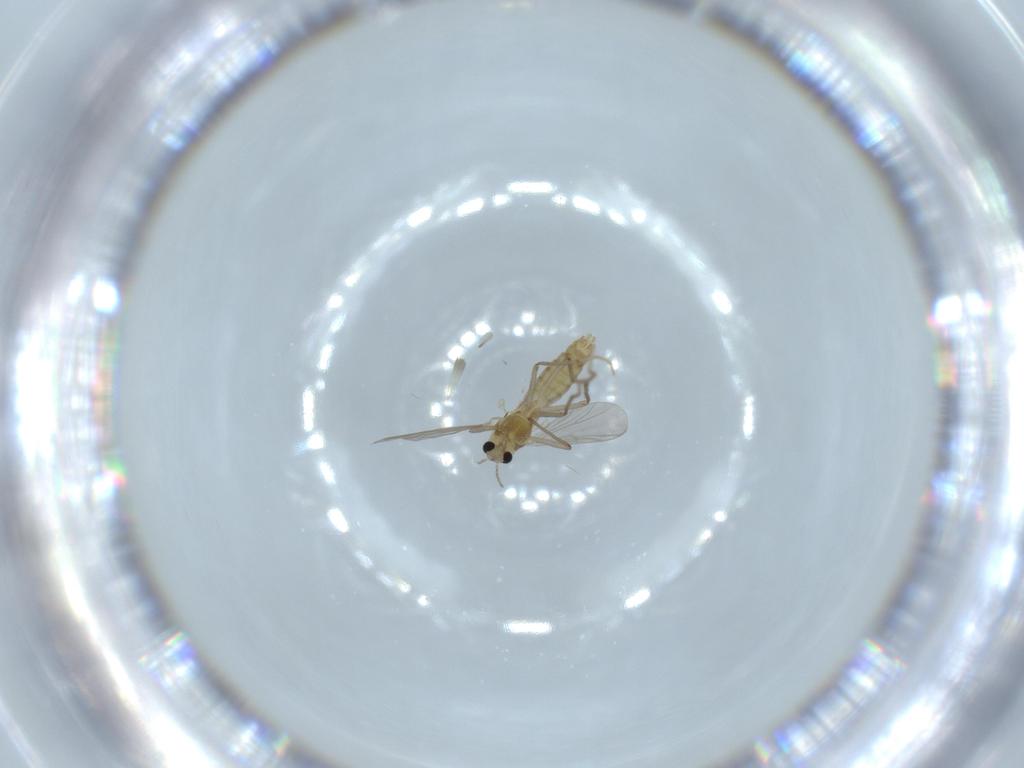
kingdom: Animalia
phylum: Arthropoda
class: Insecta
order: Diptera
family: Chironomidae
